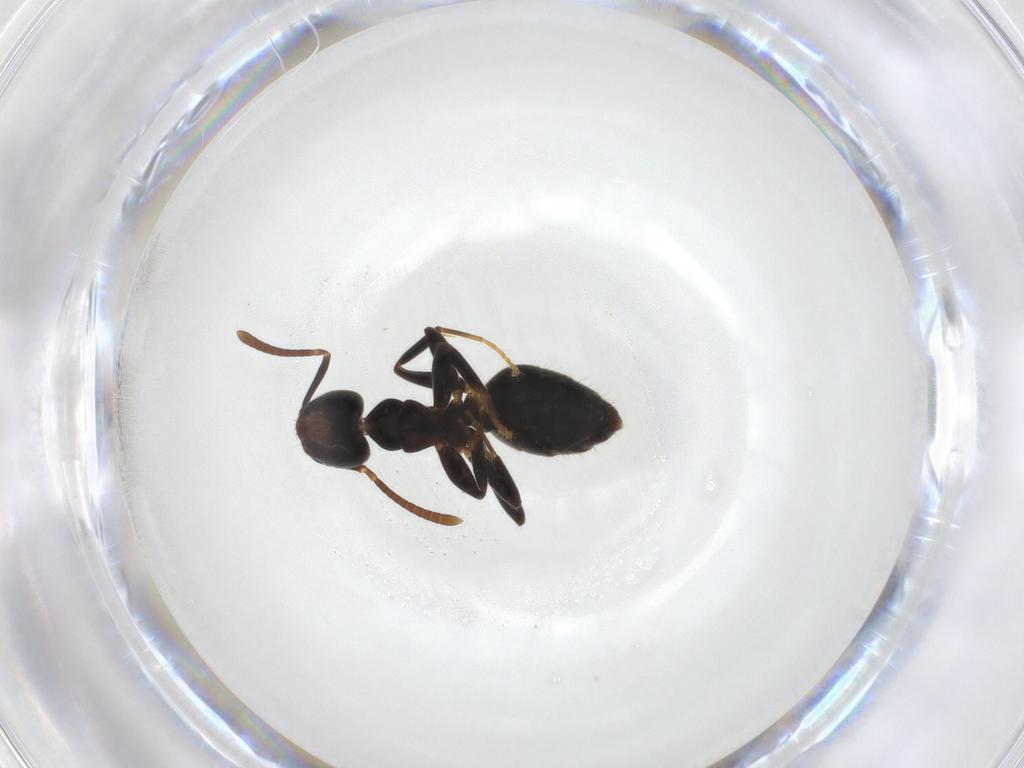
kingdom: Animalia
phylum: Arthropoda
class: Insecta
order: Hymenoptera
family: Formicidae
